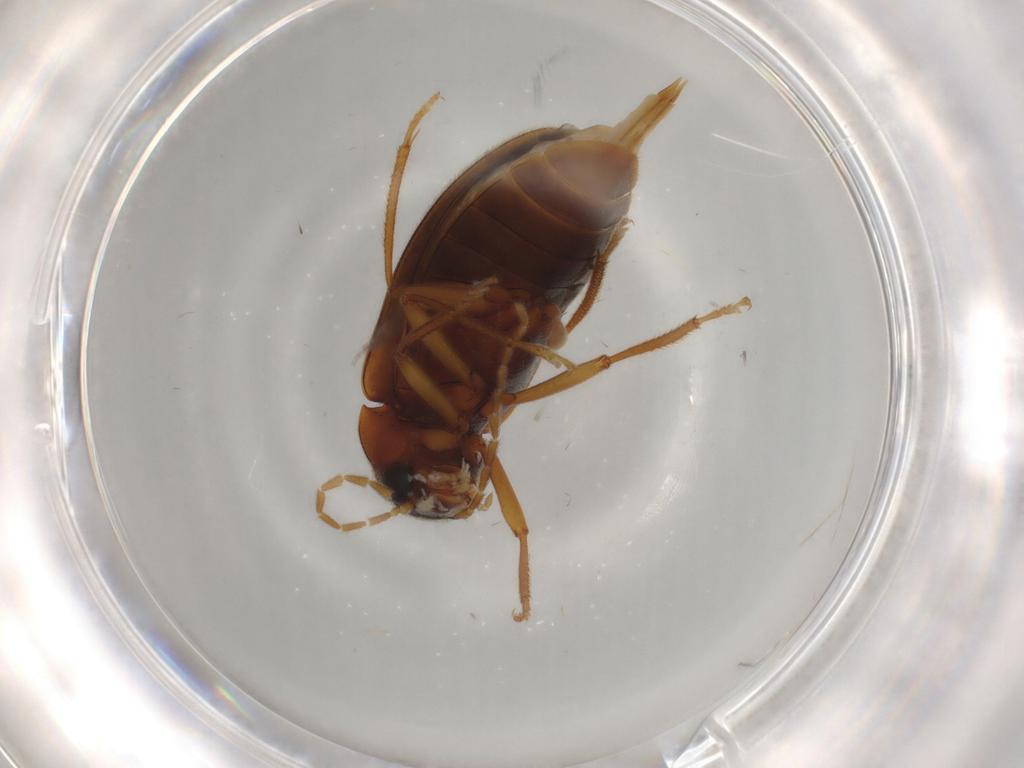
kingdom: Animalia
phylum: Arthropoda
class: Insecta
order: Coleoptera
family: Ptilodactylidae
